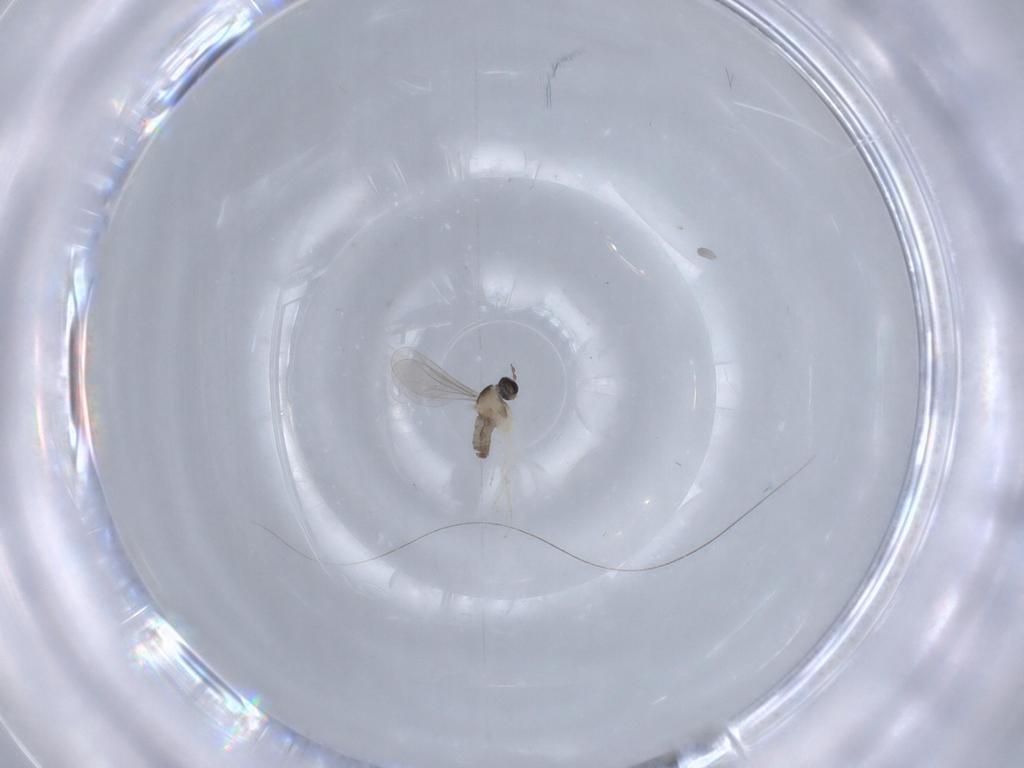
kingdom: Animalia
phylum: Arthropoda
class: Insecta
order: Diptera
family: Cecidomyiidae
